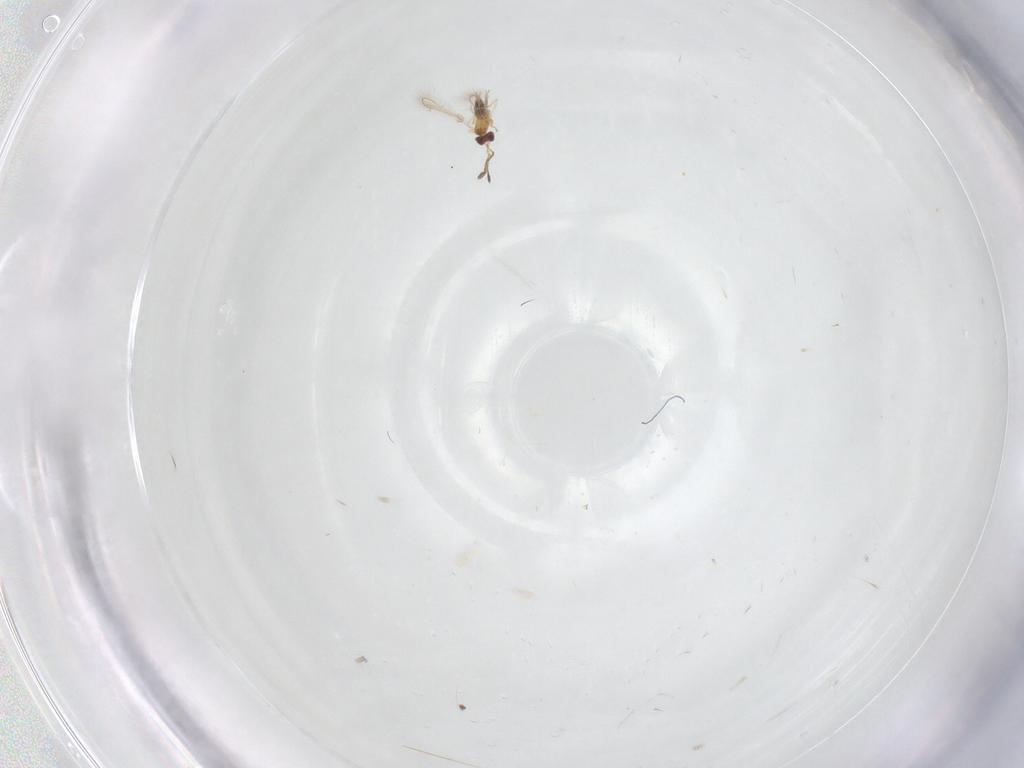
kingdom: Animalia
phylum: Arthropoda
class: Insecta
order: Hymenoptera
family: Mymaridae
